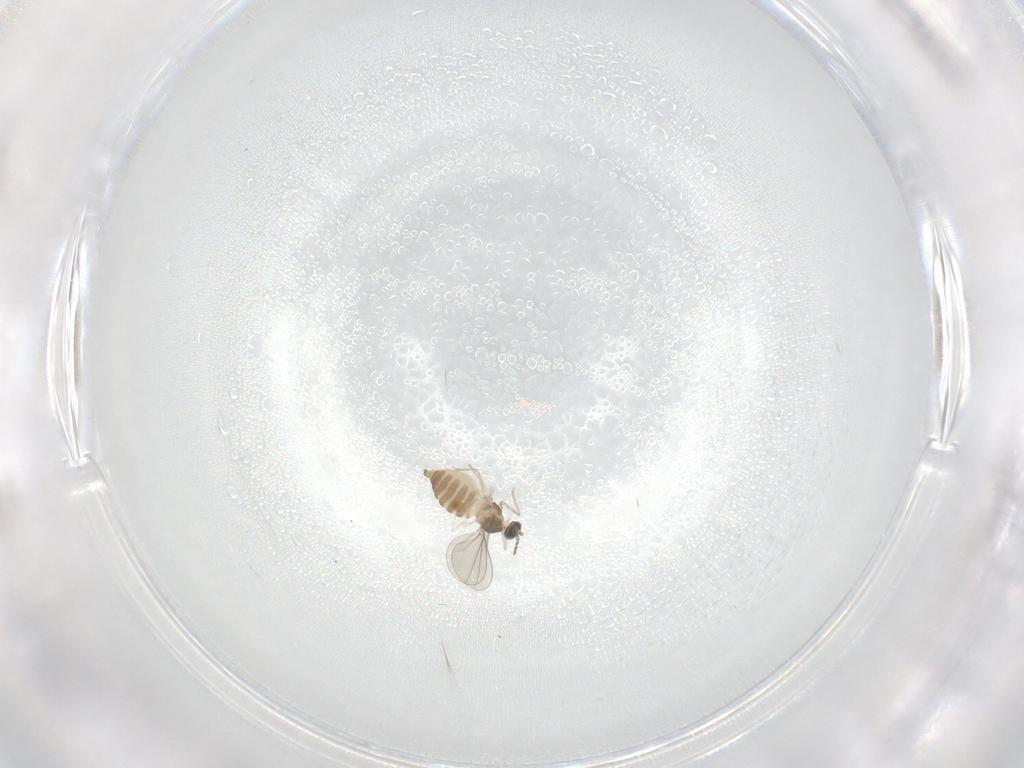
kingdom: Animalia
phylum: Arthropoda
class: Insecta
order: Diptera
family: Mycetophilidae
